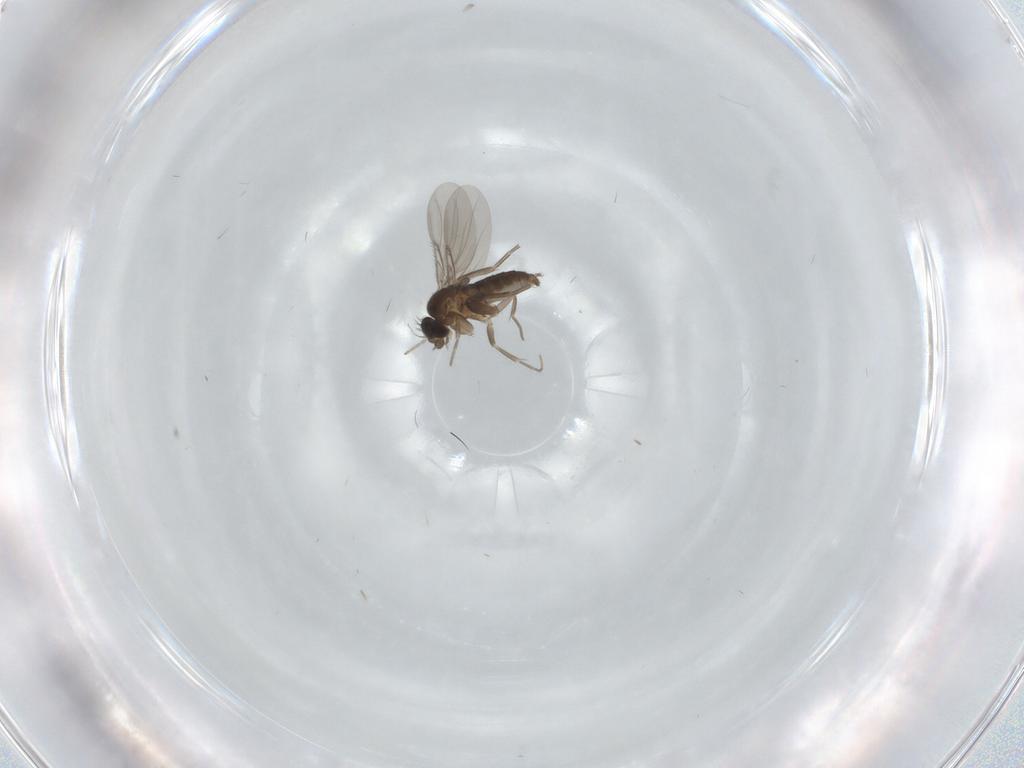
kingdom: Animalia
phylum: Arthropoda
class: Insecta
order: Diptera
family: Phoridae
